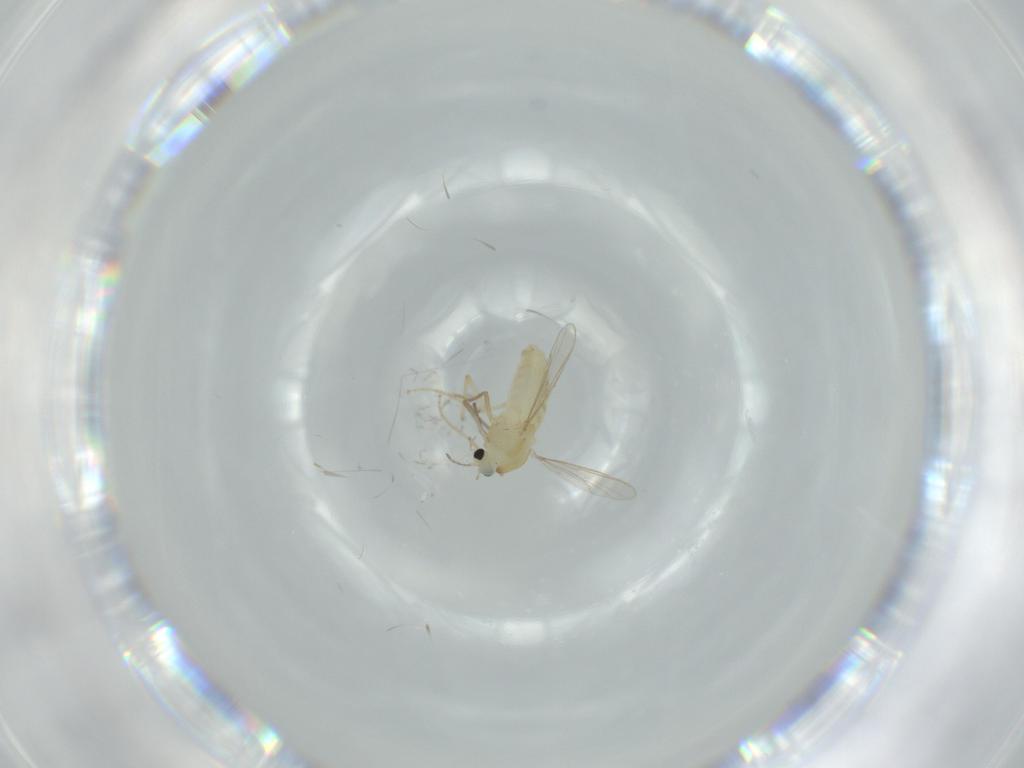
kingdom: Animalia
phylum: Arthropoda
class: Insecta
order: Diptera
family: Chironomidae
